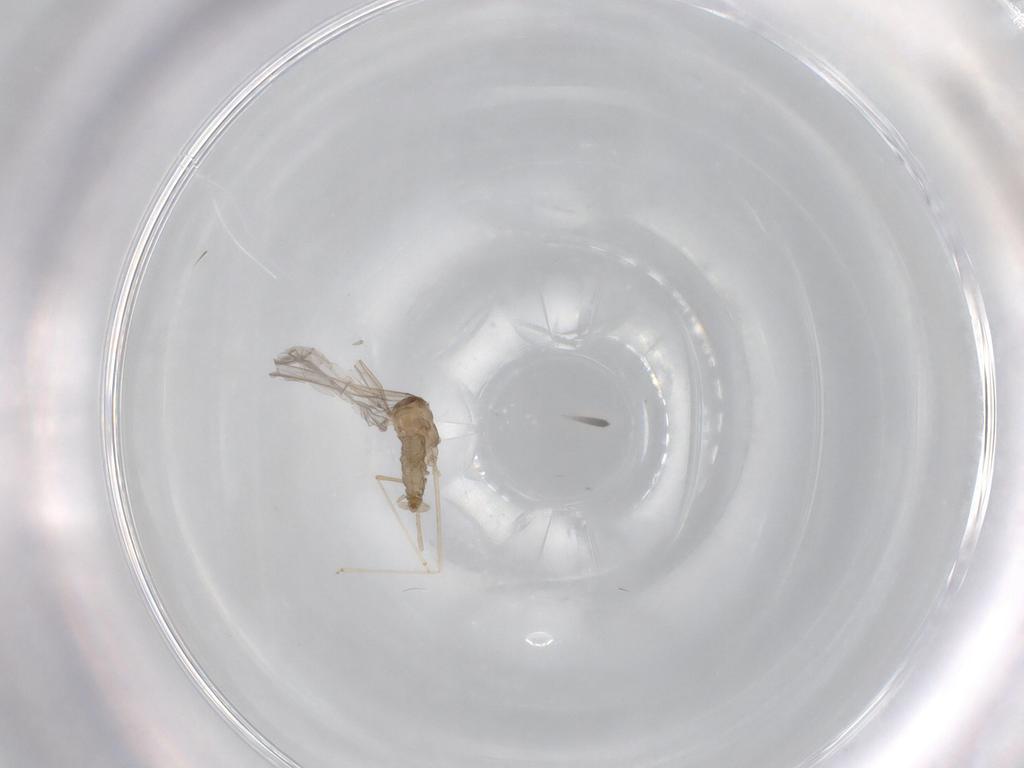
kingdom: Animalia
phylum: Arthropoda
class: Insecta
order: Diptera
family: Cecidomyiidae
